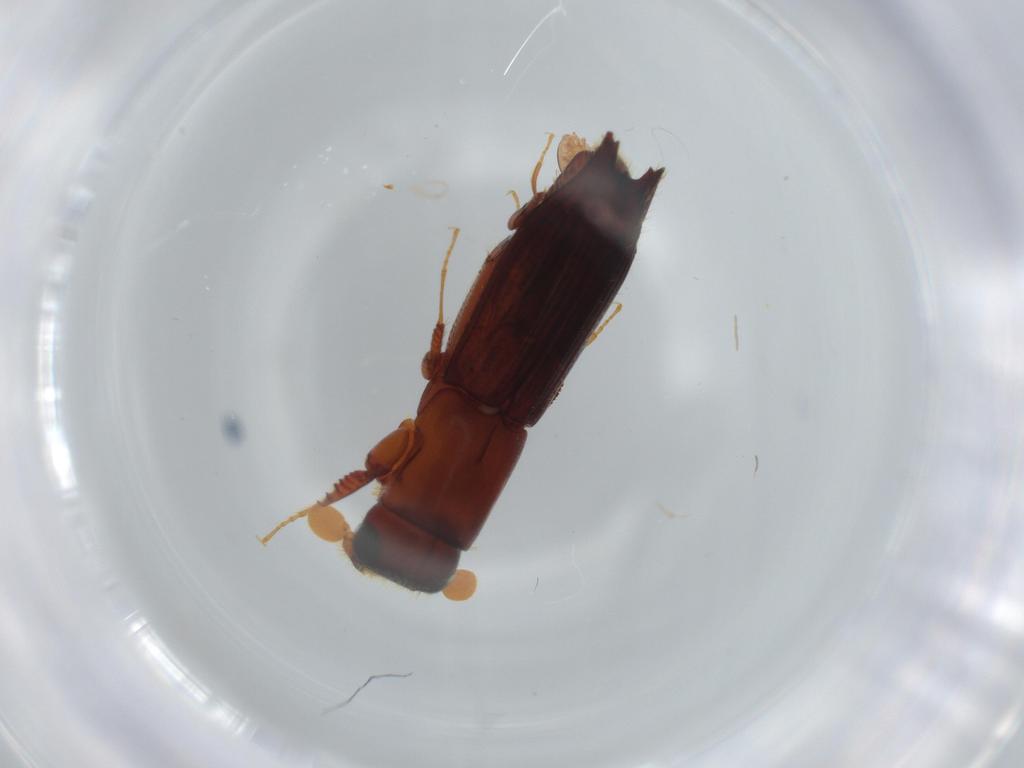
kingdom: Animalia
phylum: Arthropoda
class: Insecta
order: Coleoptera
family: Curculionidae
